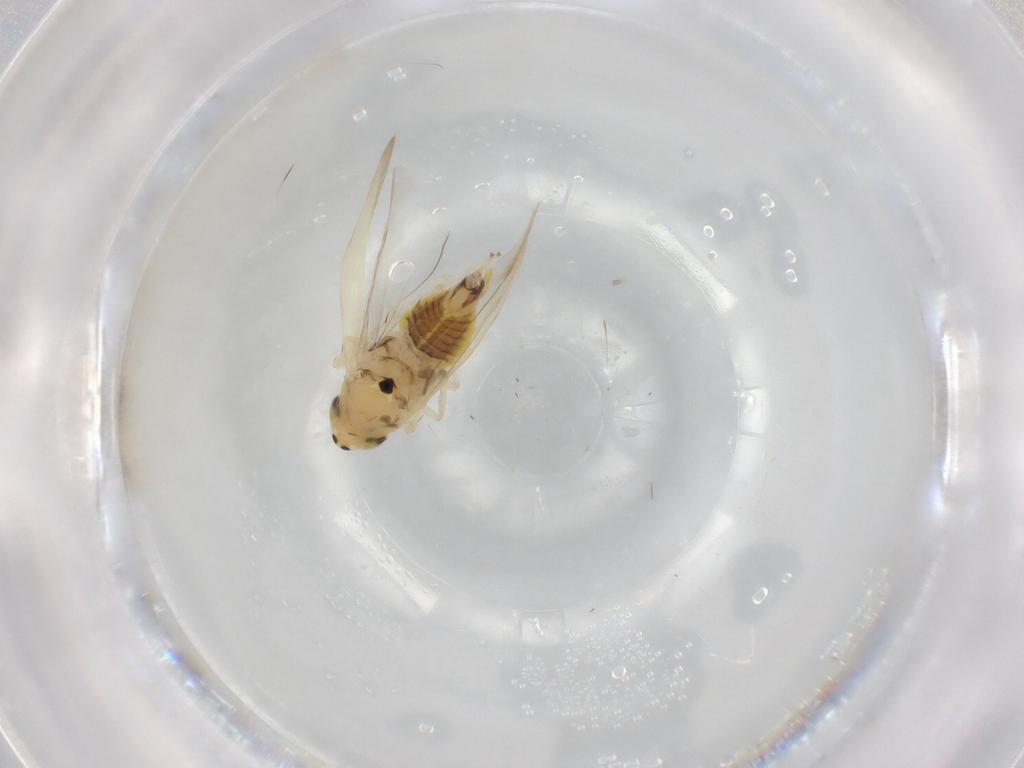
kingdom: Animalia
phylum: Arthropoda
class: Insecta
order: Hemiptera
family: Cicadellidae
